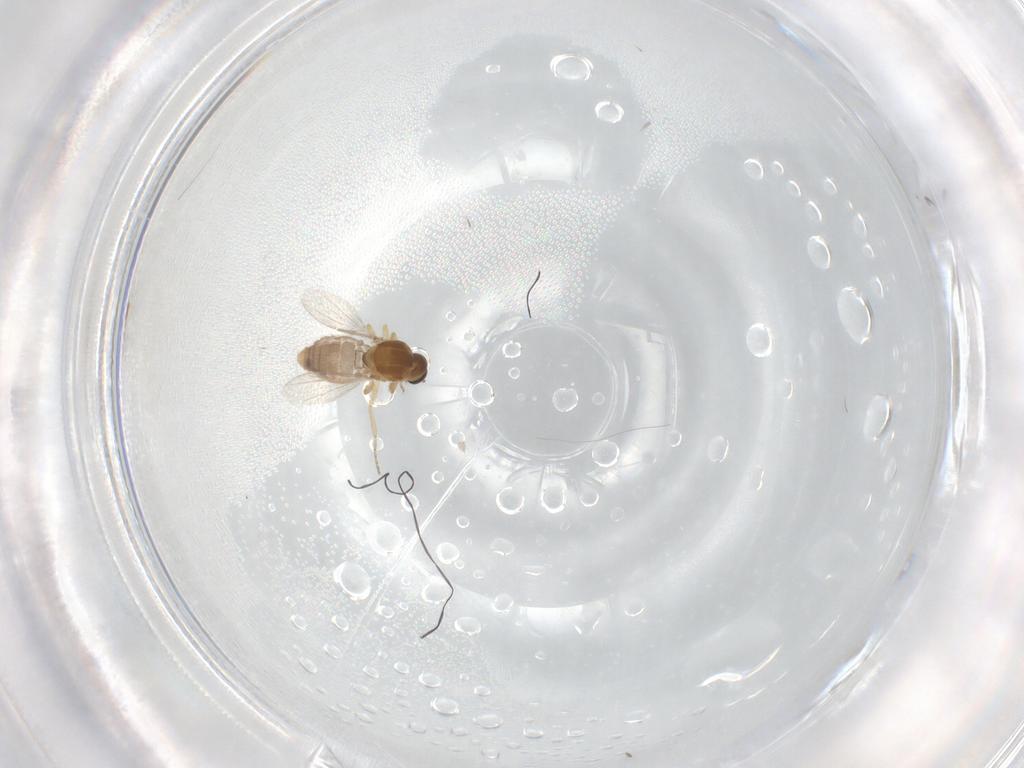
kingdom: Animalia
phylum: Arthropoda
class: Insecta
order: Diptera
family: Ceratopogonidae
